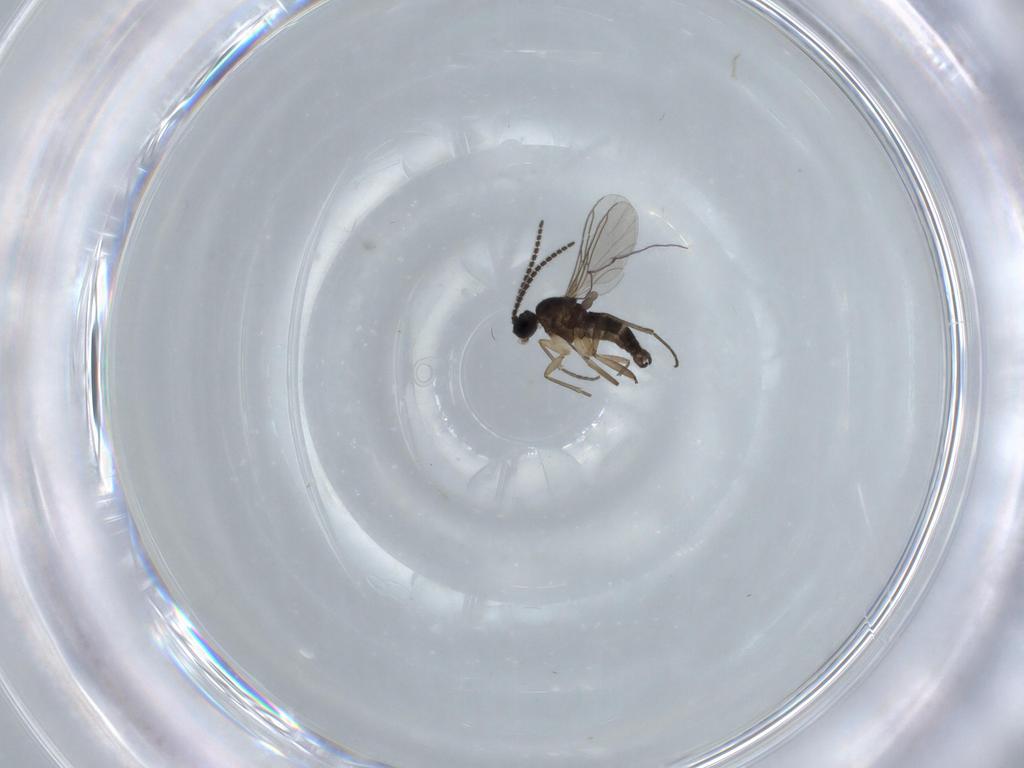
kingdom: Animalia
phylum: Arthropoda
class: Insecta
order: Diptera
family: Sciaridae
